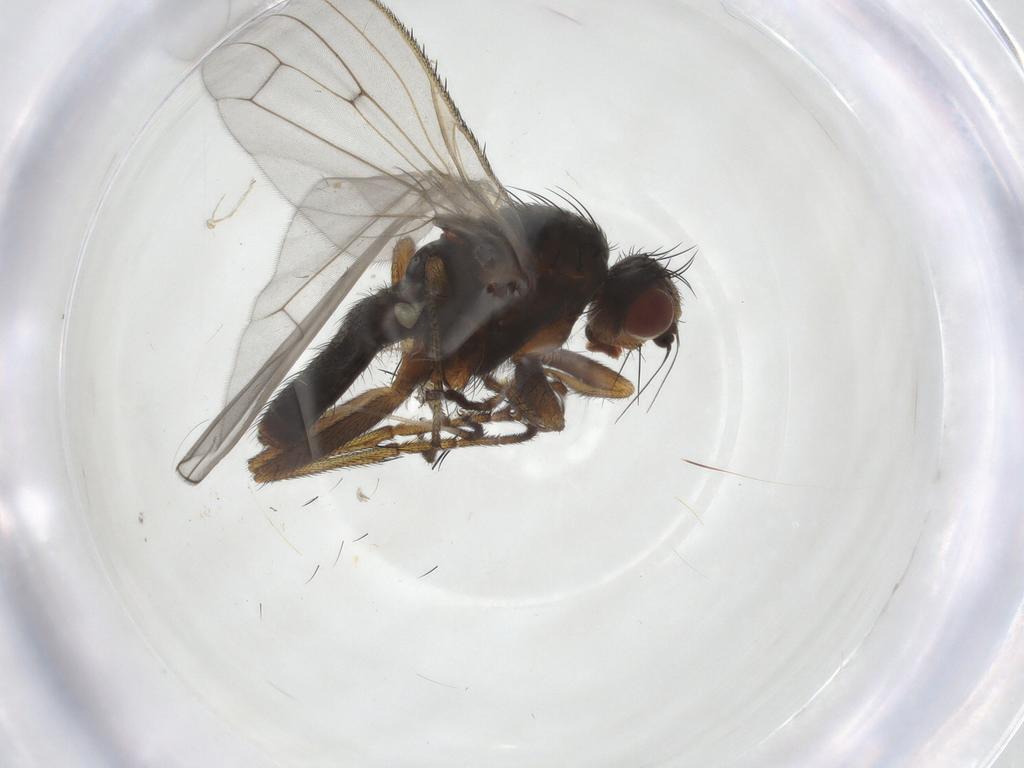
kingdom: Animalia
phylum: Arthropoda
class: Insecta
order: Diptera
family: Heleomyzidae
